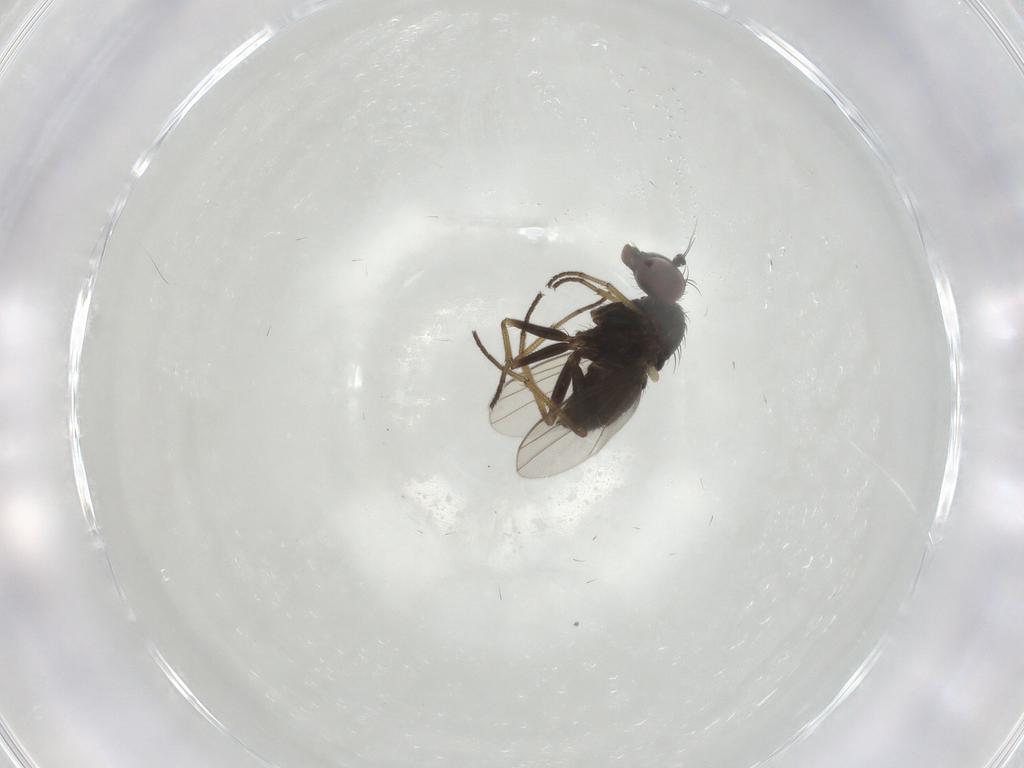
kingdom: Animalia
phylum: Arthropoda
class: Insecta
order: Diptera
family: Dolichopodidae
